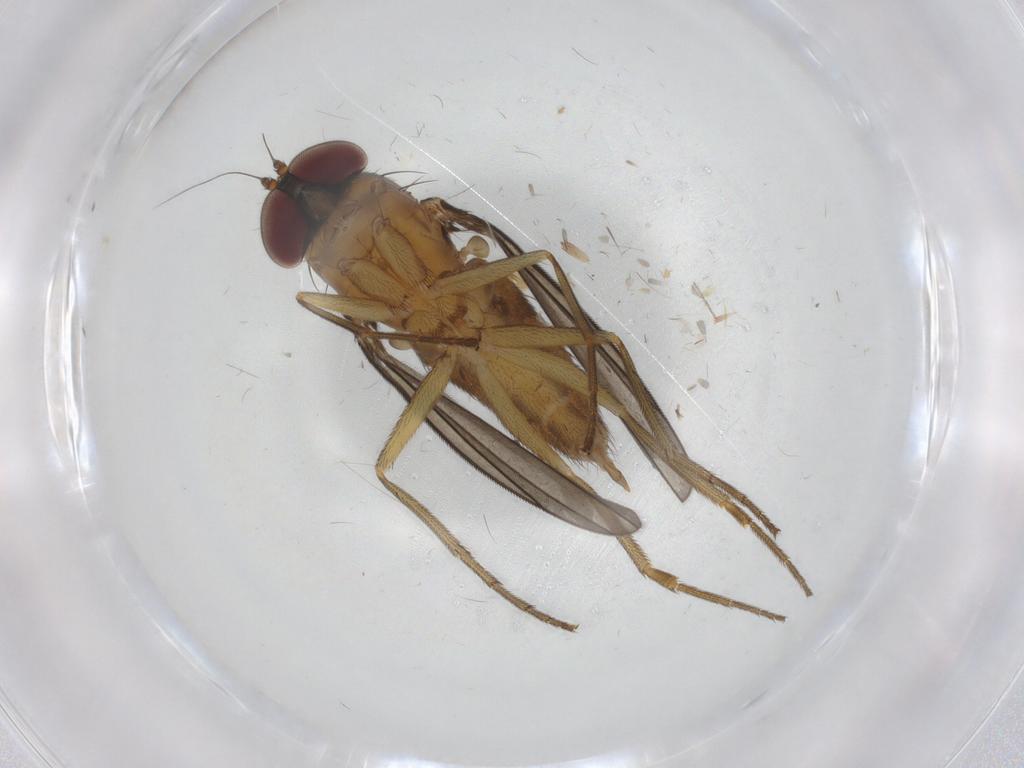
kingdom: Animalia
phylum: Arthropoda
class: Insecta
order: Diptera
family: Dolichopodidae
